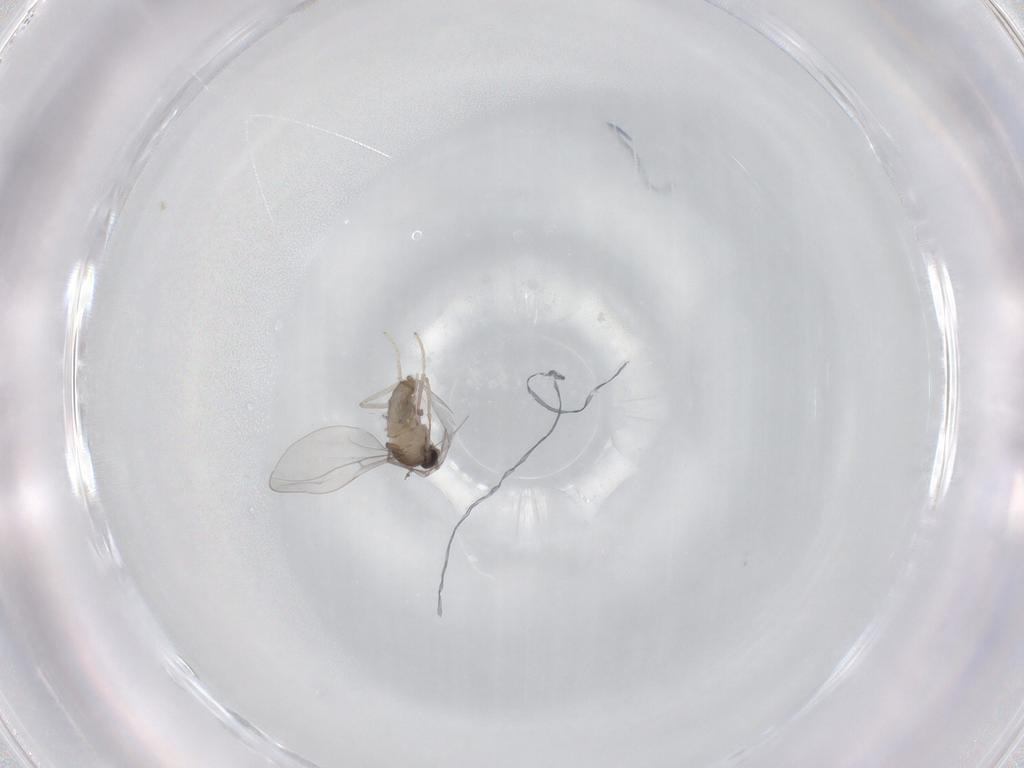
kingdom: Animalia
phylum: Arthropoda
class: Insecta
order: Diptera
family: Cecidomyiidae
